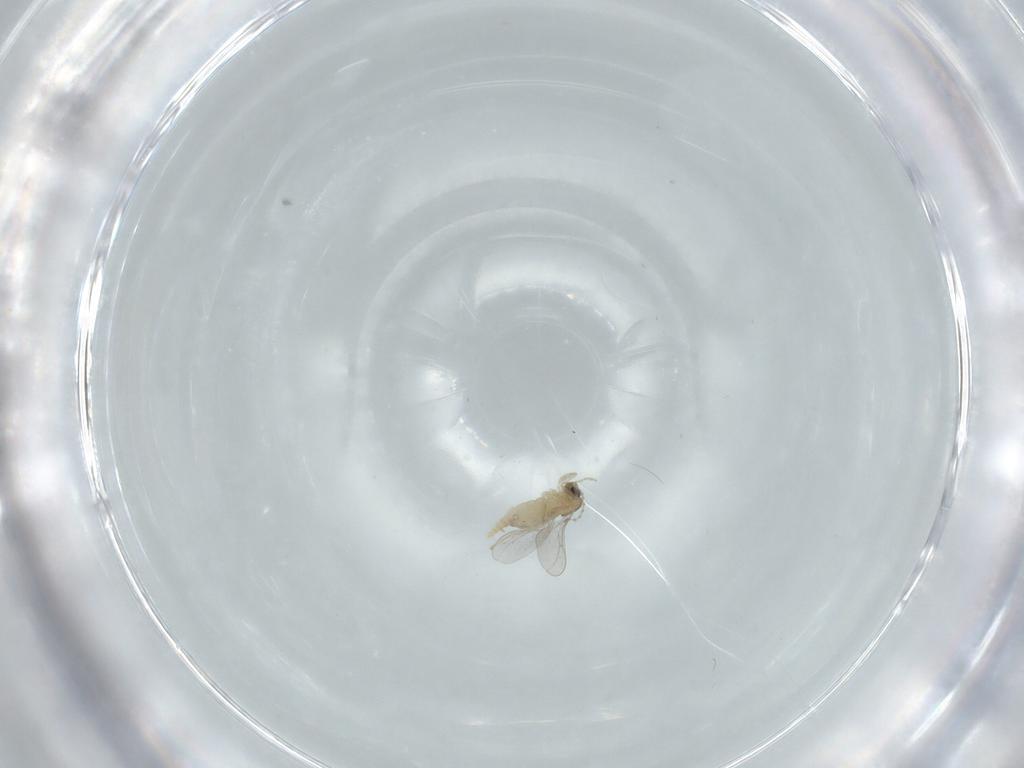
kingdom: Animalia
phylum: Arthropoda
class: Insecta
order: Diptera
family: Cecidomyiidae
